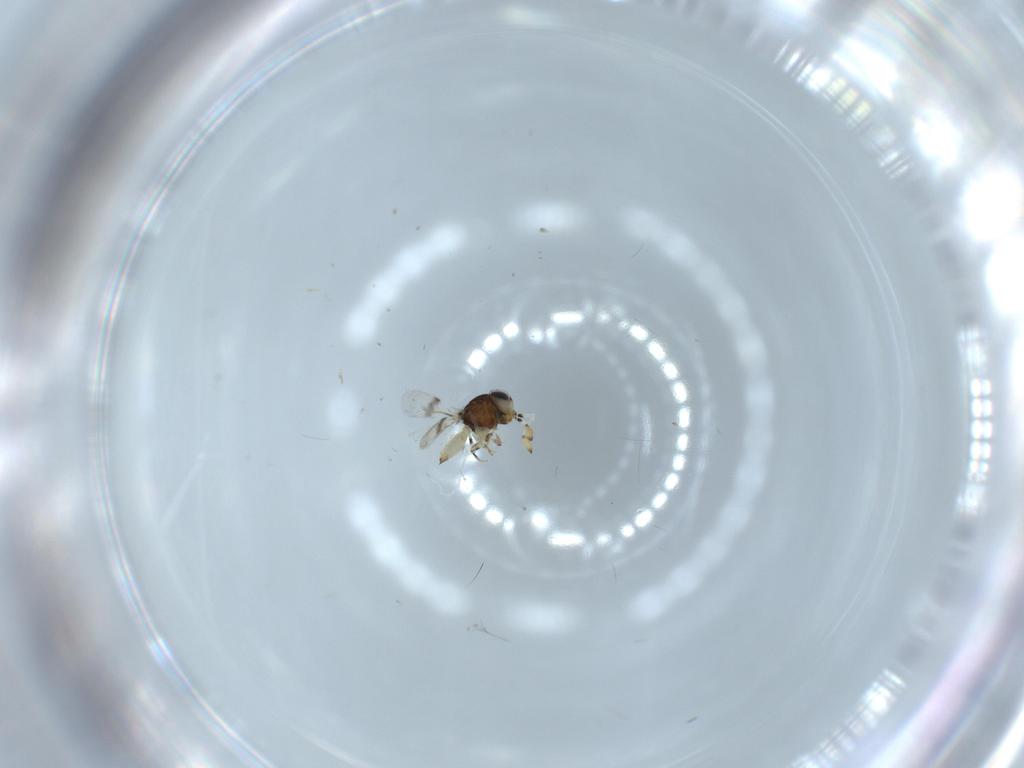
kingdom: Animalia
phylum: Arthropoda
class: Insecta
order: Hymenoptera
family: Scelionidae
